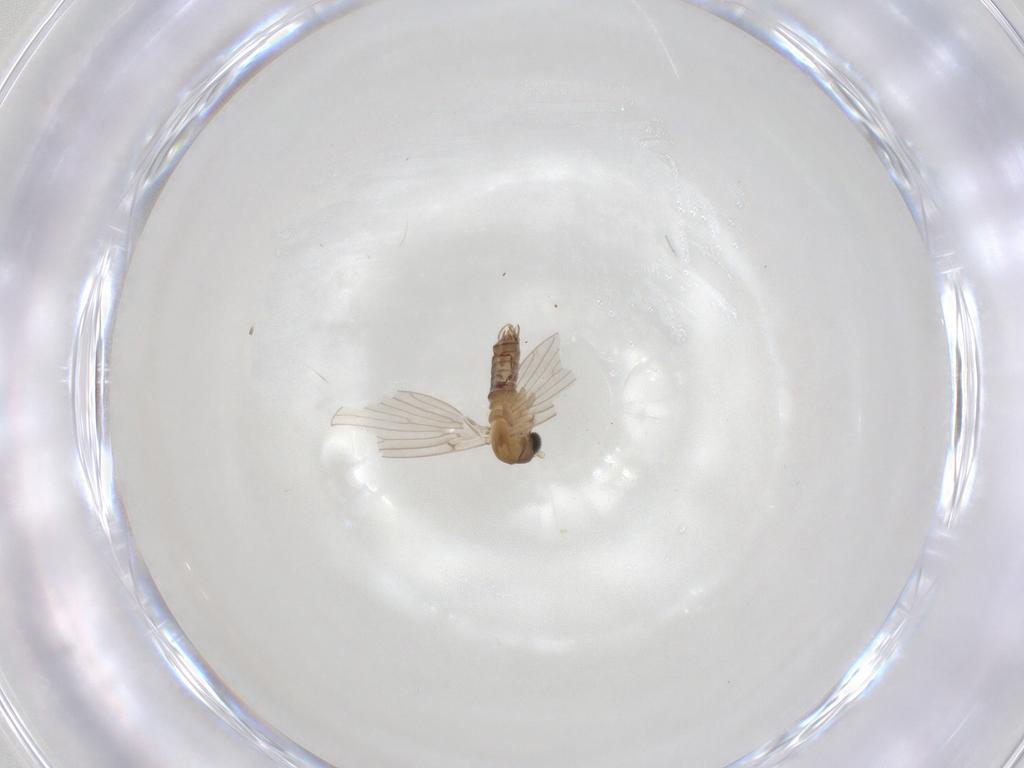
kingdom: Animalia
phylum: Arthropoda
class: Insecta
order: Diptera
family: Psychodidae
